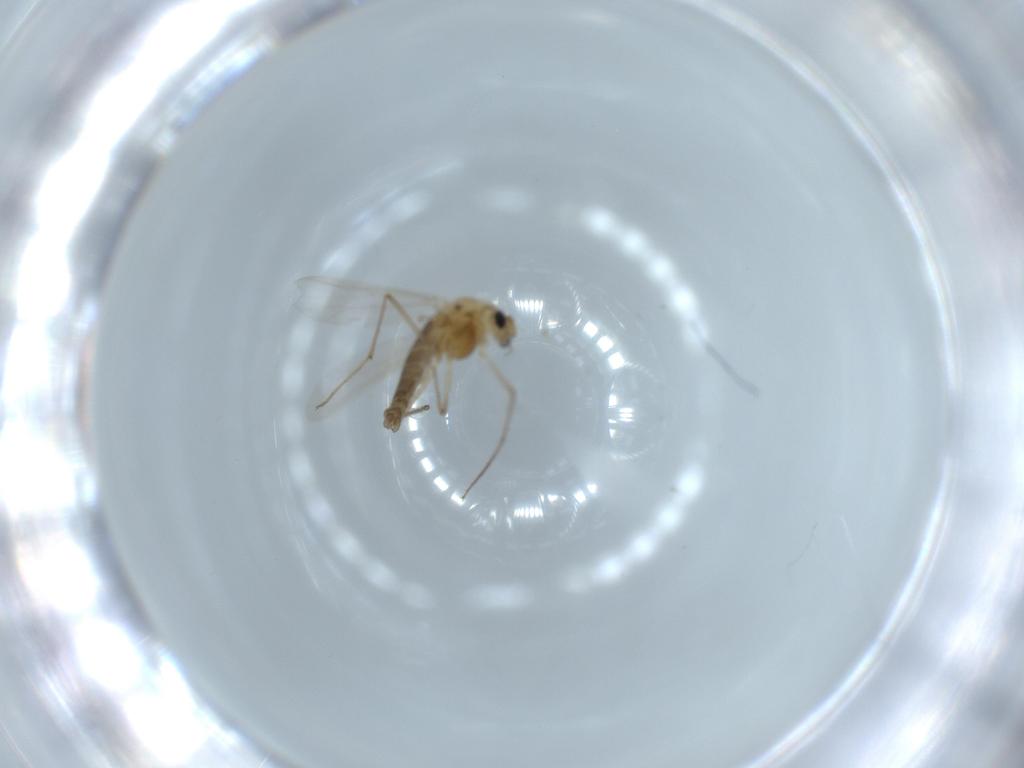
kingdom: Animalia
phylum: Arthropoda
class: Insecta
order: Diptera
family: Chironomidae
